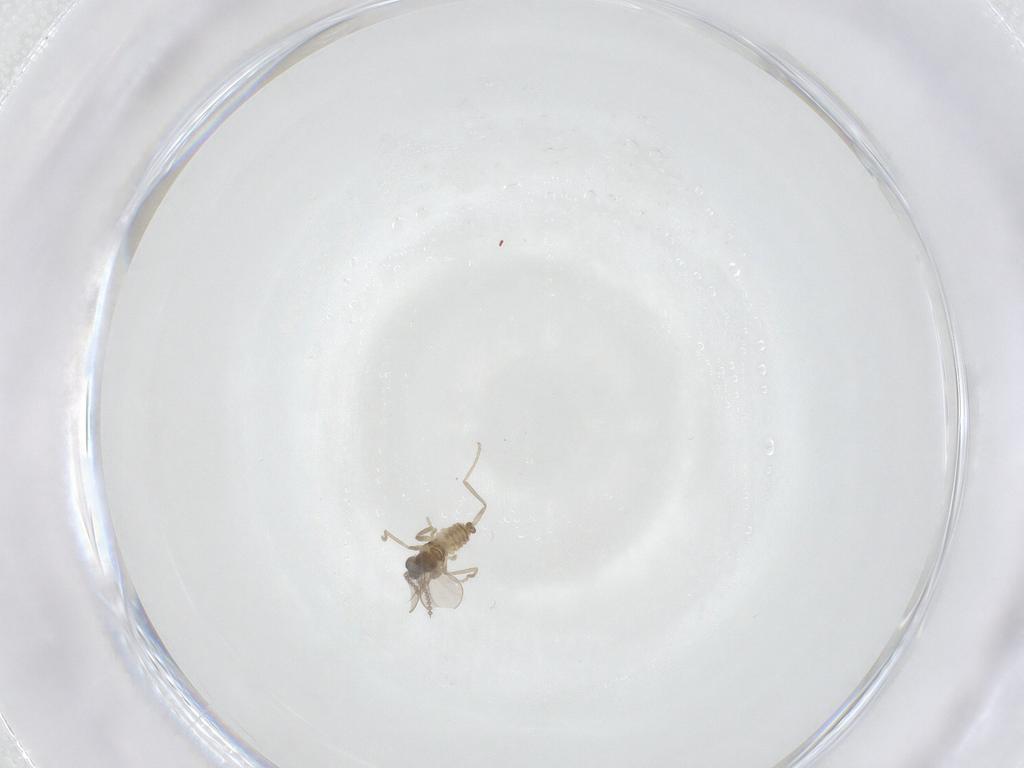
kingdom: Animalia
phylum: Arthropoda
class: Insecta
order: Diptera
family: Cecidomyiidae
